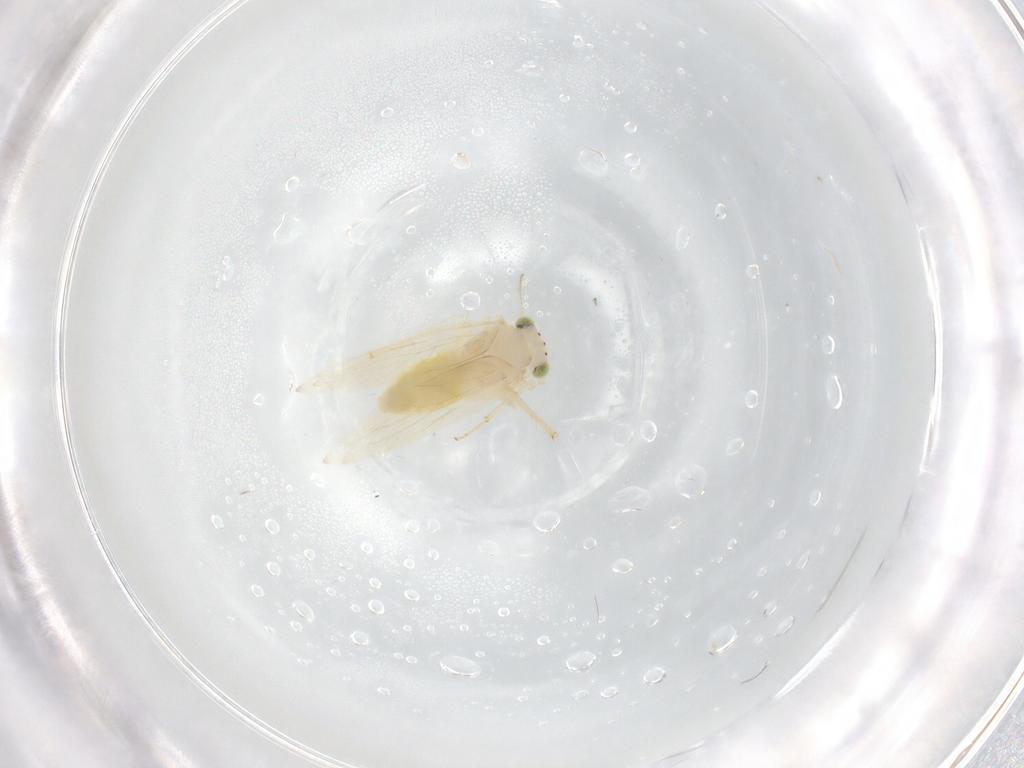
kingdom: Animalia
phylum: Arthropoda
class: Insecta
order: Psocodea
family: Lepidopsocidae
